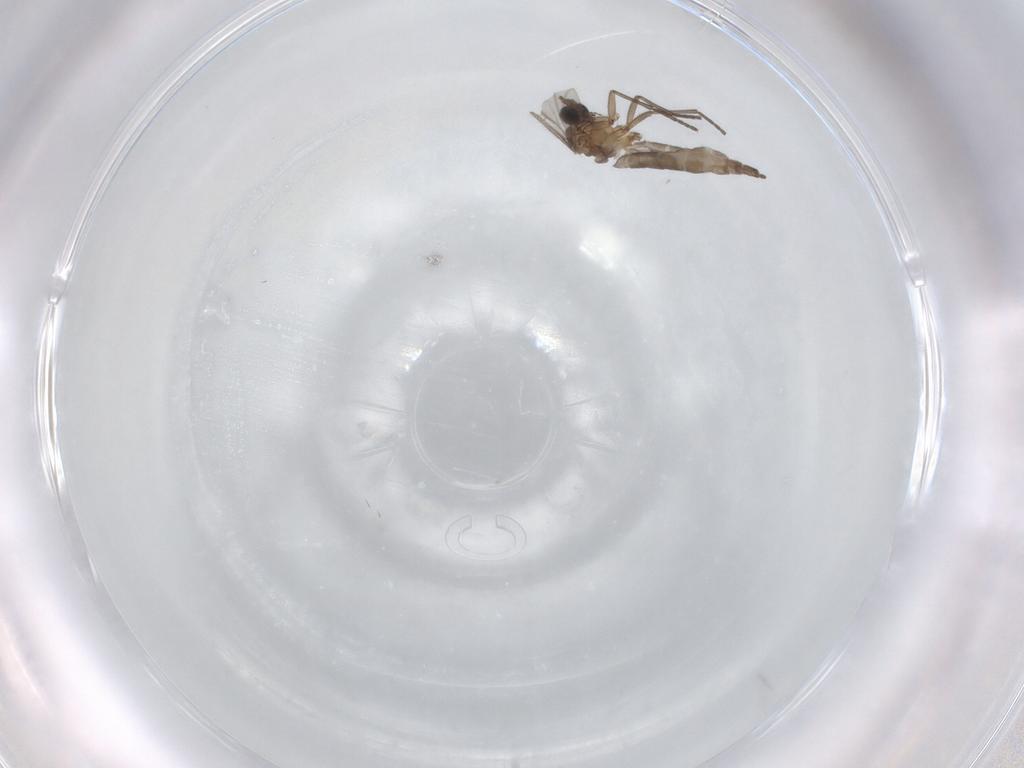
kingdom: Animalia
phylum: Arthropoda
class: Insecta
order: Diptera
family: Sciaridae
